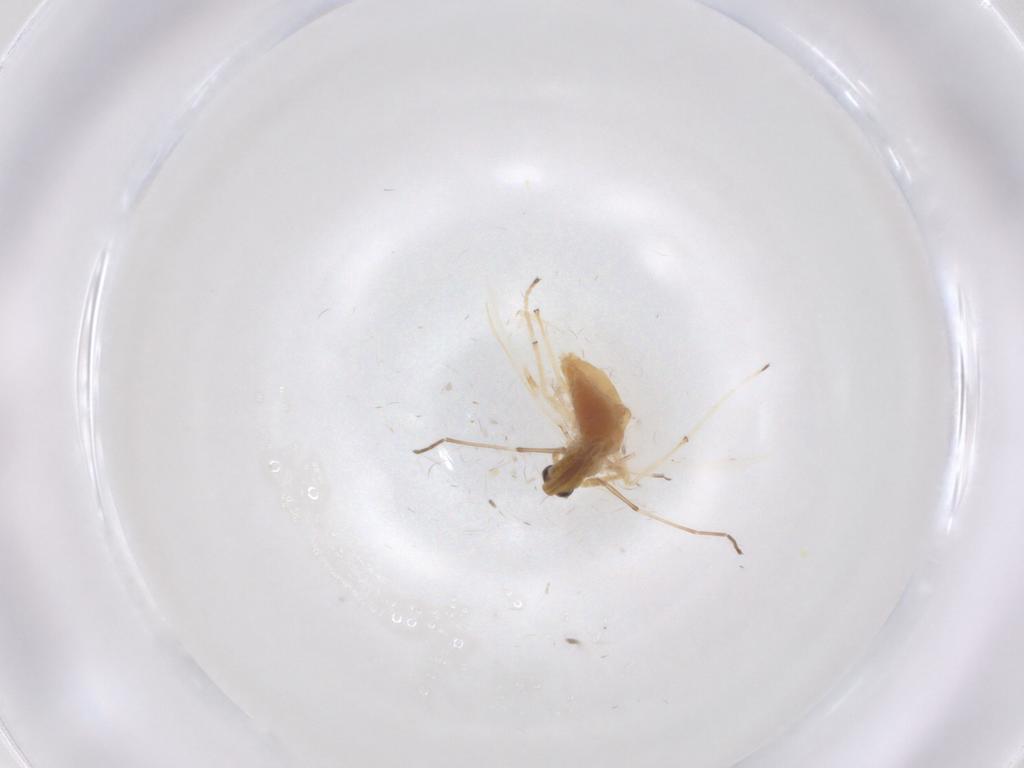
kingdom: Animalia
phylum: Arthropoda
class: Insecta
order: Diptera
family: Chironomidae
